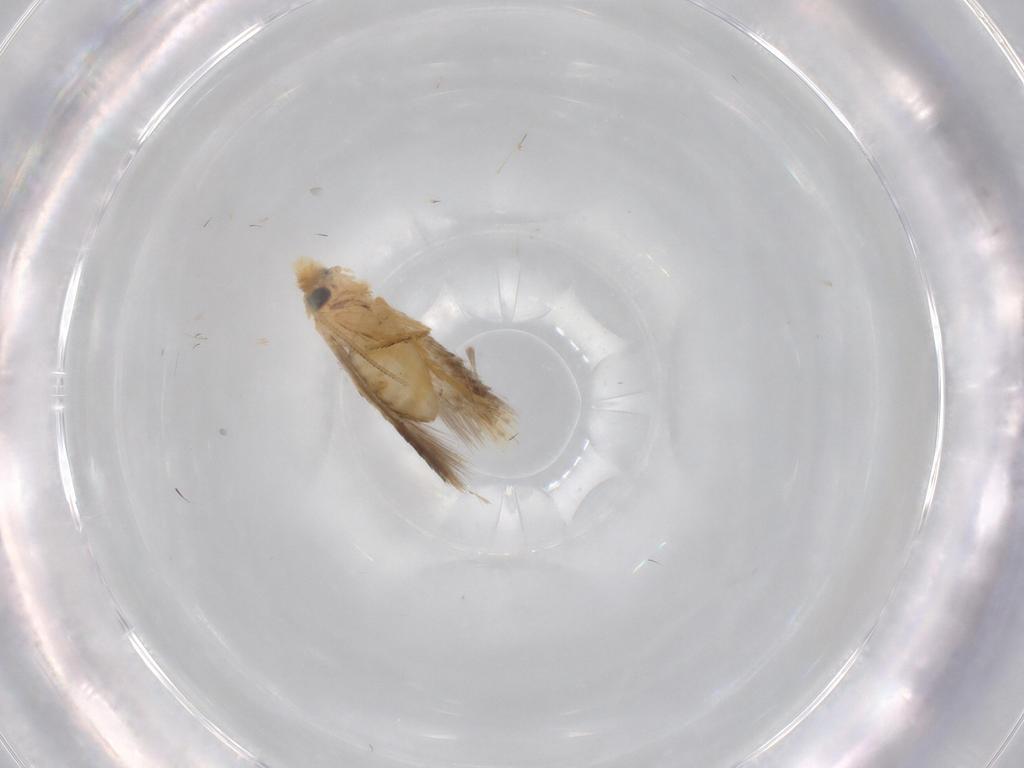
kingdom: Animalia
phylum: Arthropoda
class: Insecta
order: Lepidoptera
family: Nepticulidae
